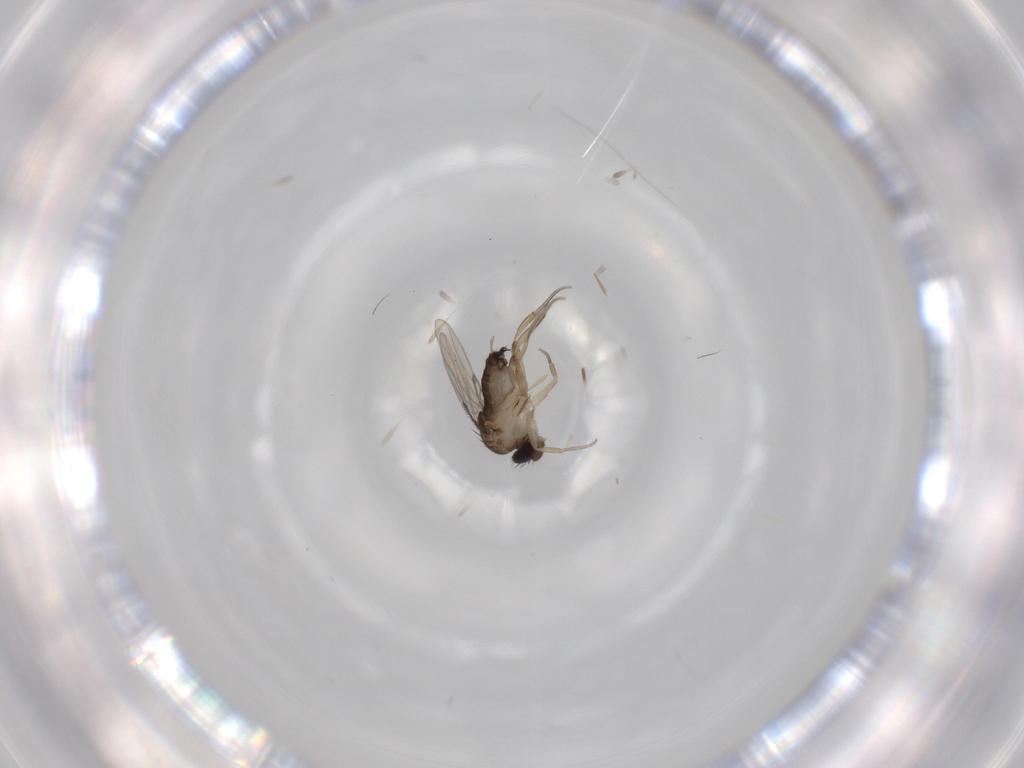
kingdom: Animalia
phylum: Arthropoda
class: Insecta
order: Diptera
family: Phoridae
